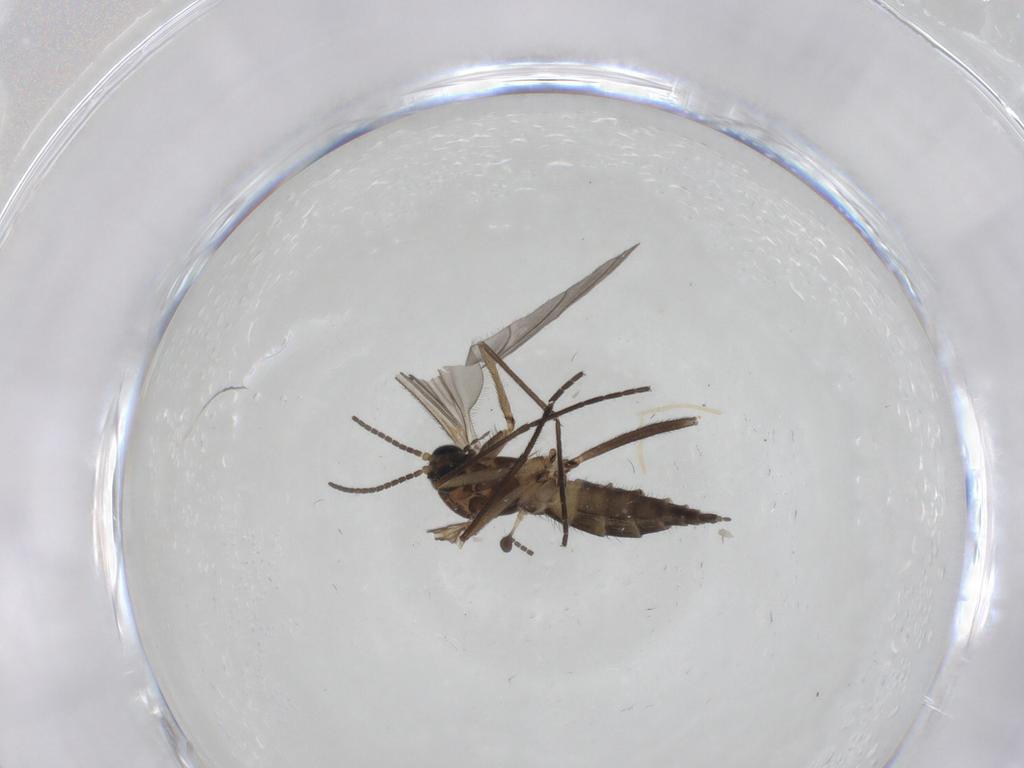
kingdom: Animalia
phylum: Arthropoda
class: Insecta
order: Diptera
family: Sciaridae
